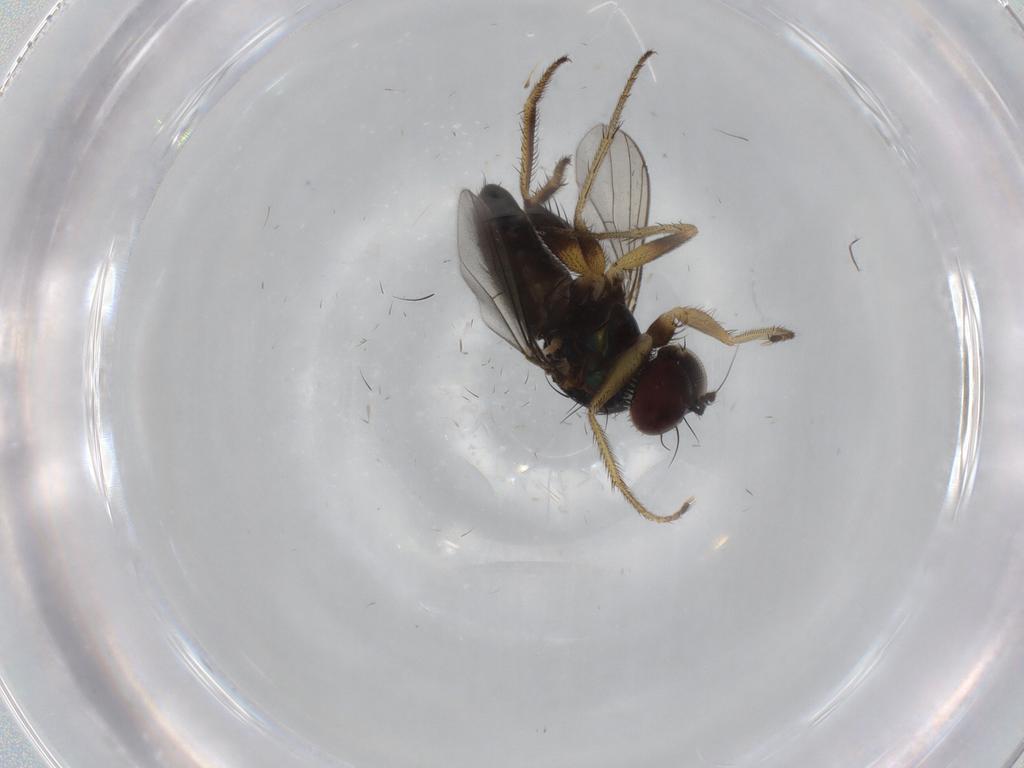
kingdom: Animalia
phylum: Arthropoda
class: Insecta
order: Diptera
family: Dolichopodidae
